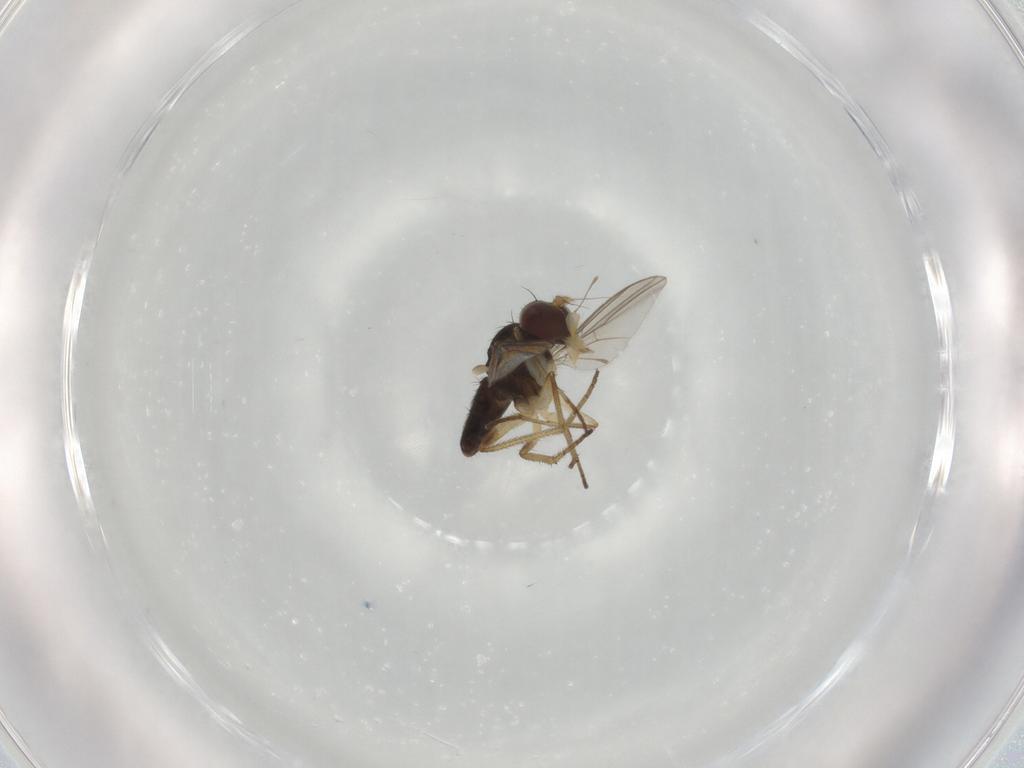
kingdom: Animalia
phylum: Arthropoda
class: Insecta
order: Diptera
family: Dolichopodidae
